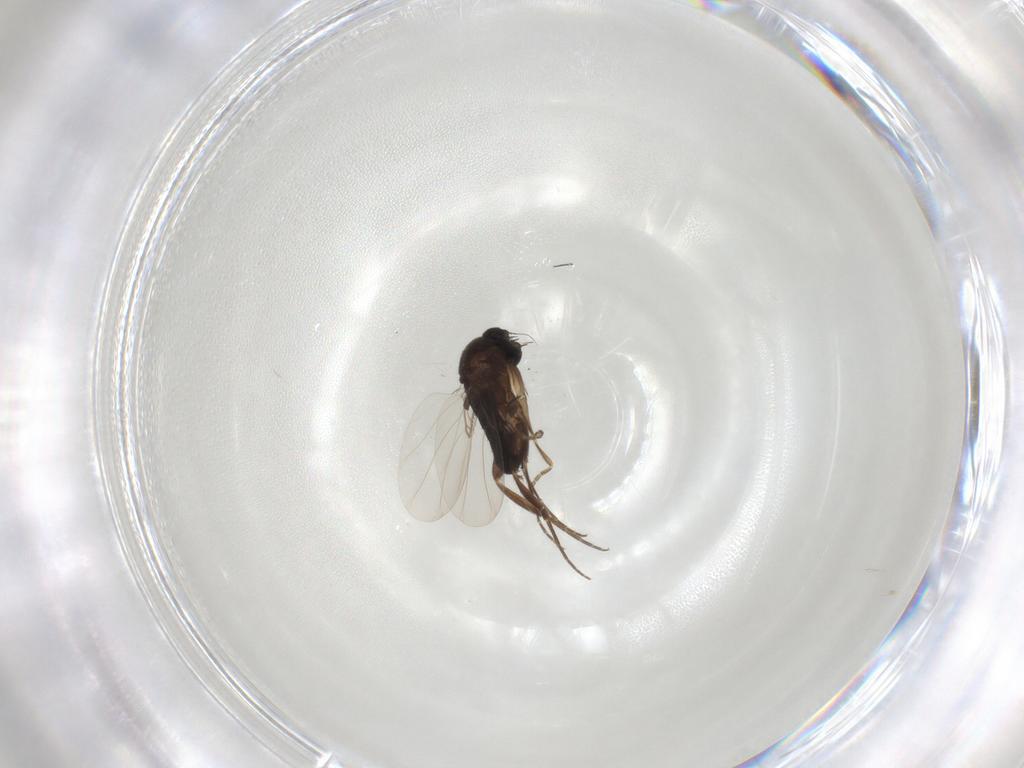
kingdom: Animalia
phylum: Arthropoda
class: Insecta
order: Diptera
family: Phoridae
